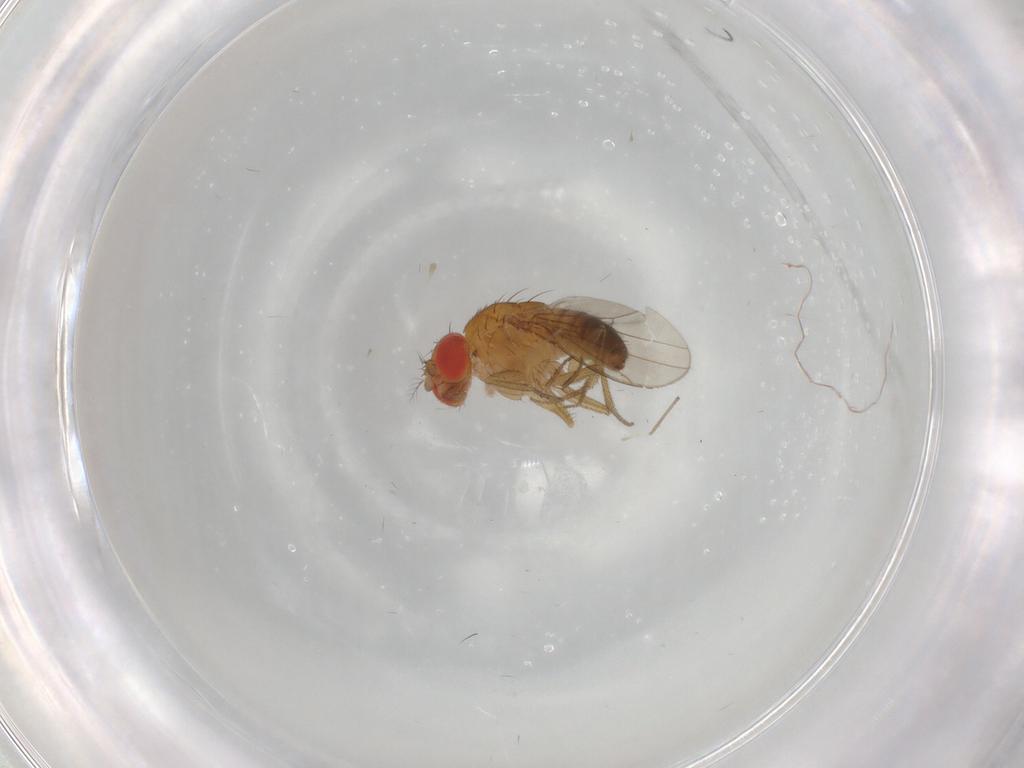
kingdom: Animalia
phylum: Arthropoda
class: Insecta
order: Diptera
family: Drosophilidae
